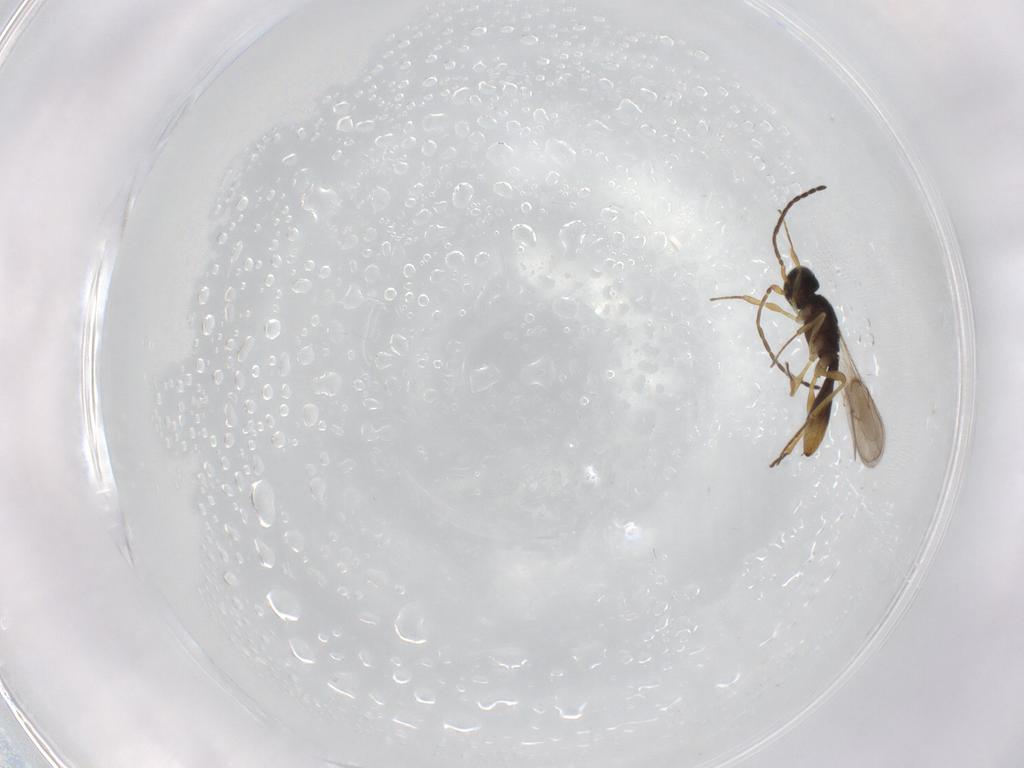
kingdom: Animalia
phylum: Arthropoda
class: Insecta
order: Hymenoptera
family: Scelionidae
